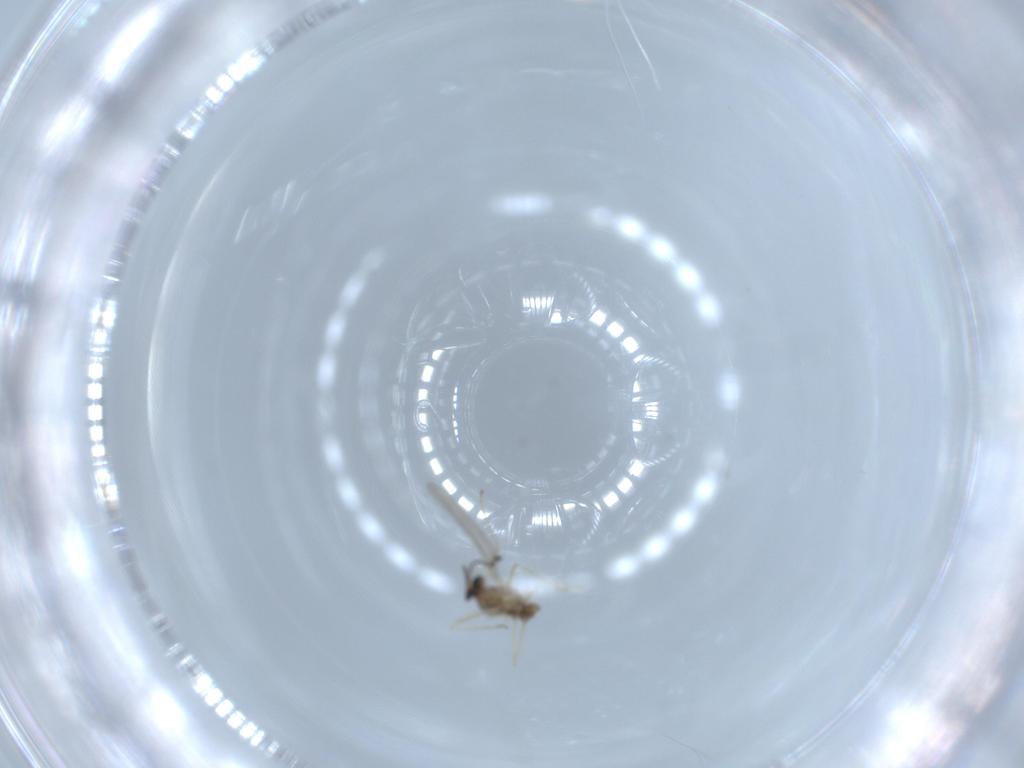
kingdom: Animalia
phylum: Arthropoda
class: Insecta
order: Diptera
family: Cecidomyiidae
